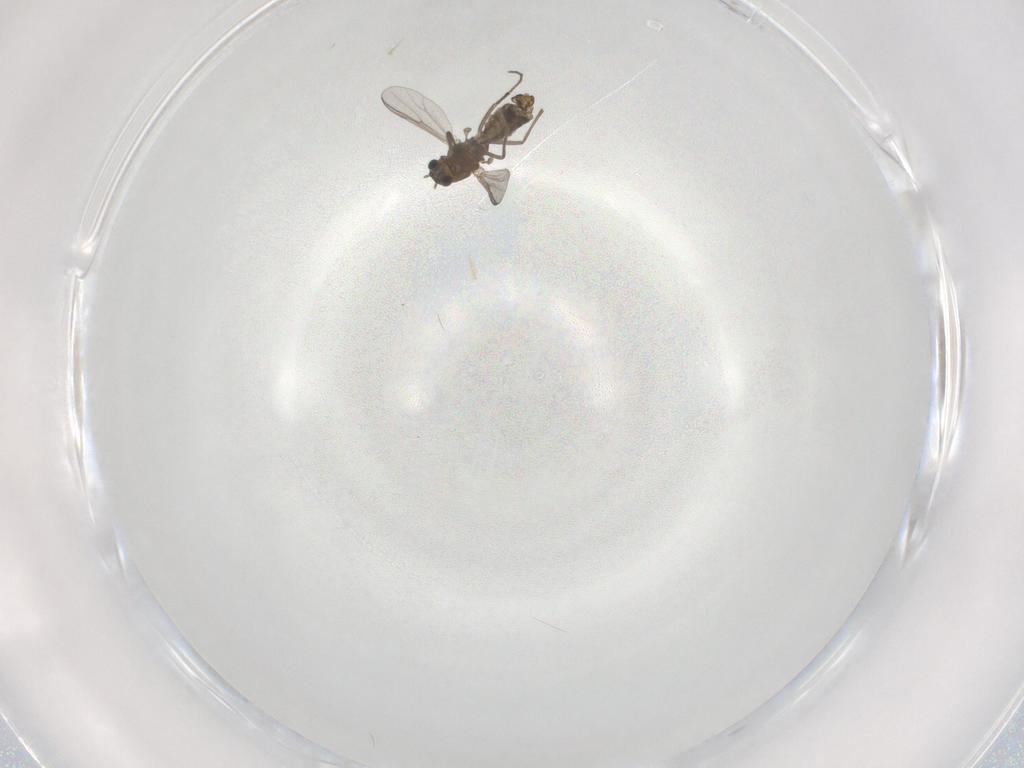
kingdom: Animalia
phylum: Arthropoda
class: Insecta
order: Diptera
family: Chironomidae
